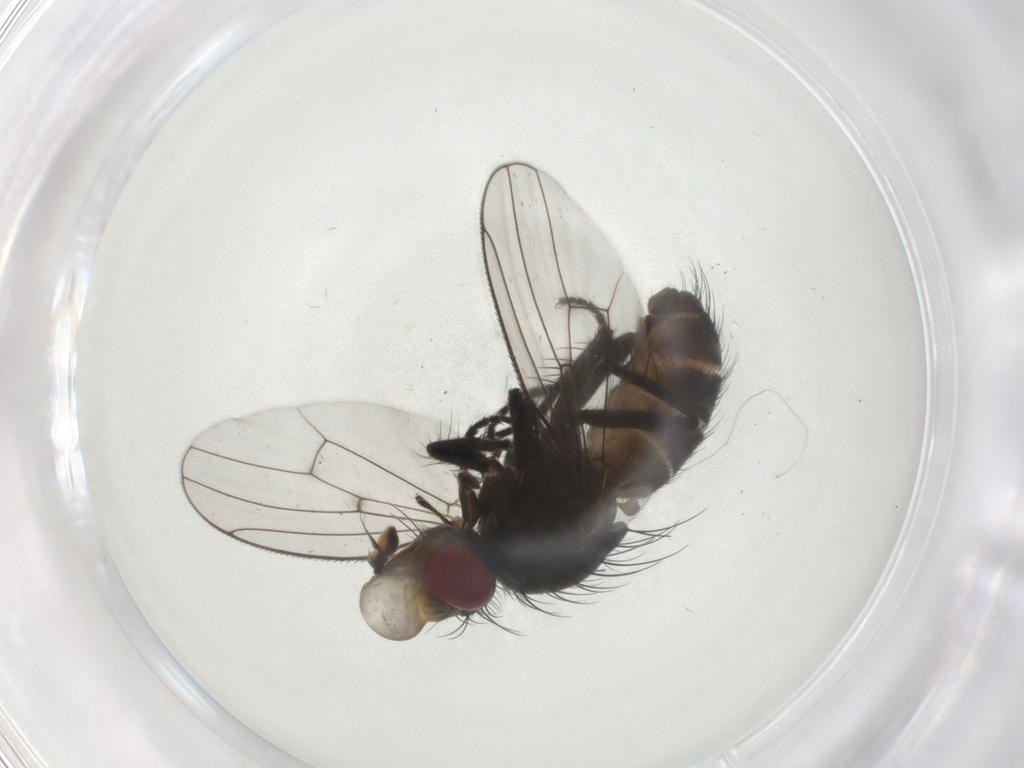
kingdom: Animalia
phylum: Arthropoda
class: Insecta
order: Diptera
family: Muscidae
